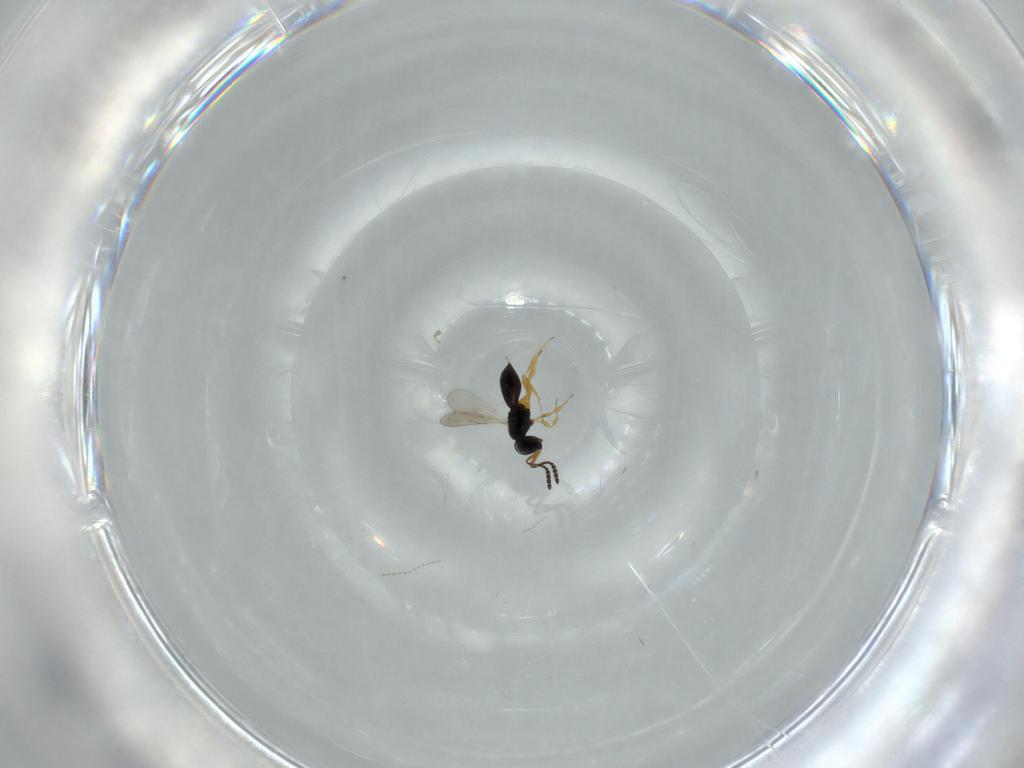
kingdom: Animalia
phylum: Arthropoda
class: Insecta
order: Hymenoptera
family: Scelionidae
